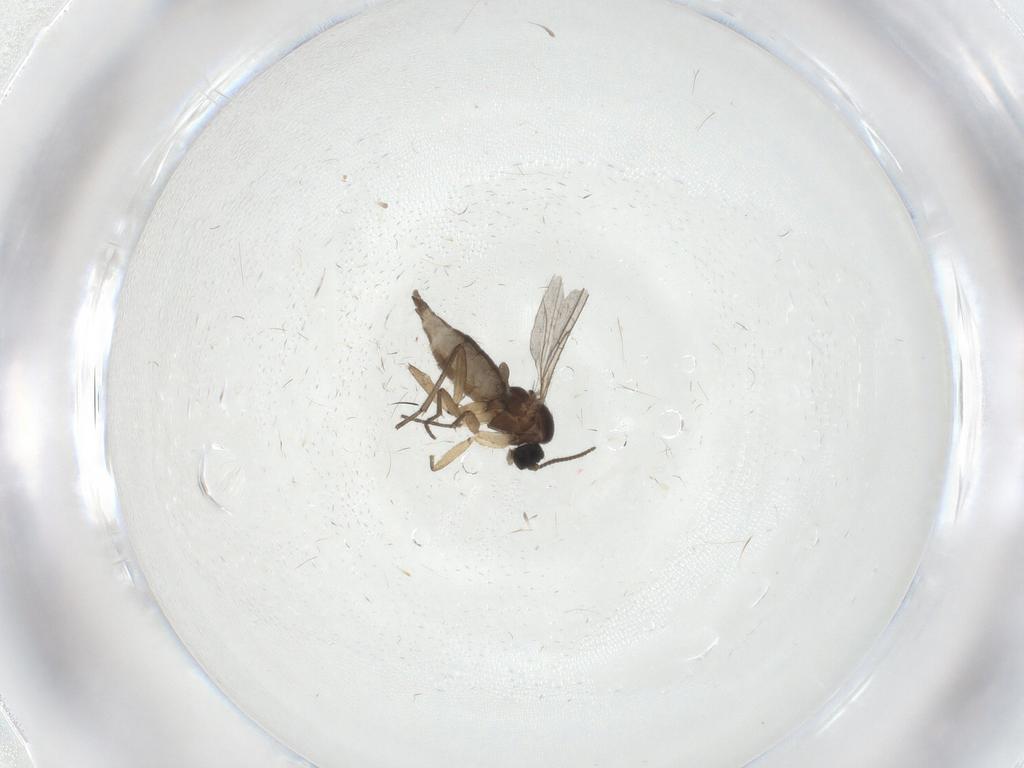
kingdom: Animalia
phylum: Arthropoda
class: Insecta
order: Diptera
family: Sciaridae
